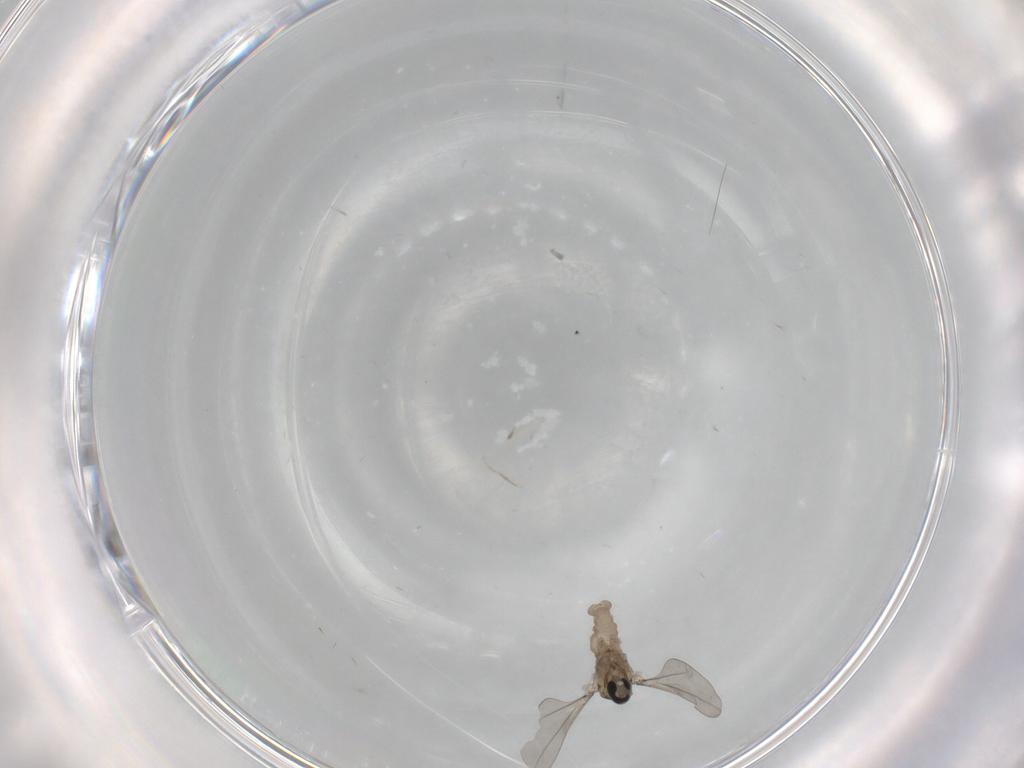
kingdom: Animalia
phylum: Arthropoda
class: Insecta
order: Diptera
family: Cecidomyiidae
